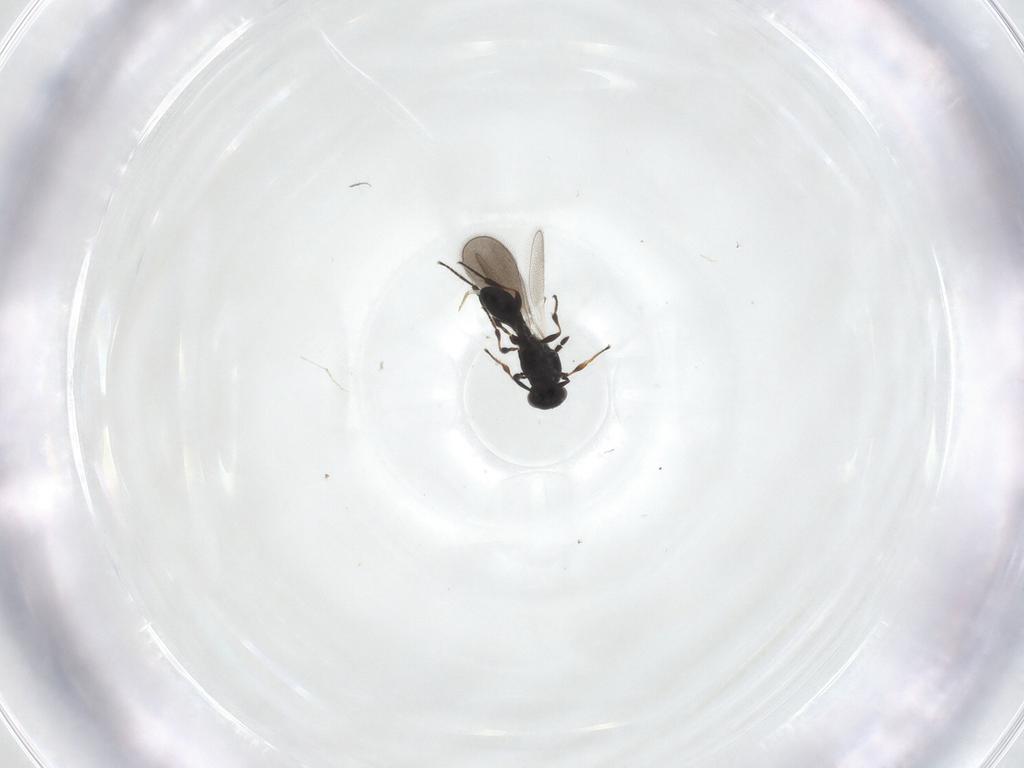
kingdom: Animalia
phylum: Arthropoda
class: Insecta
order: Hymenoptera
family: Platygastridae
